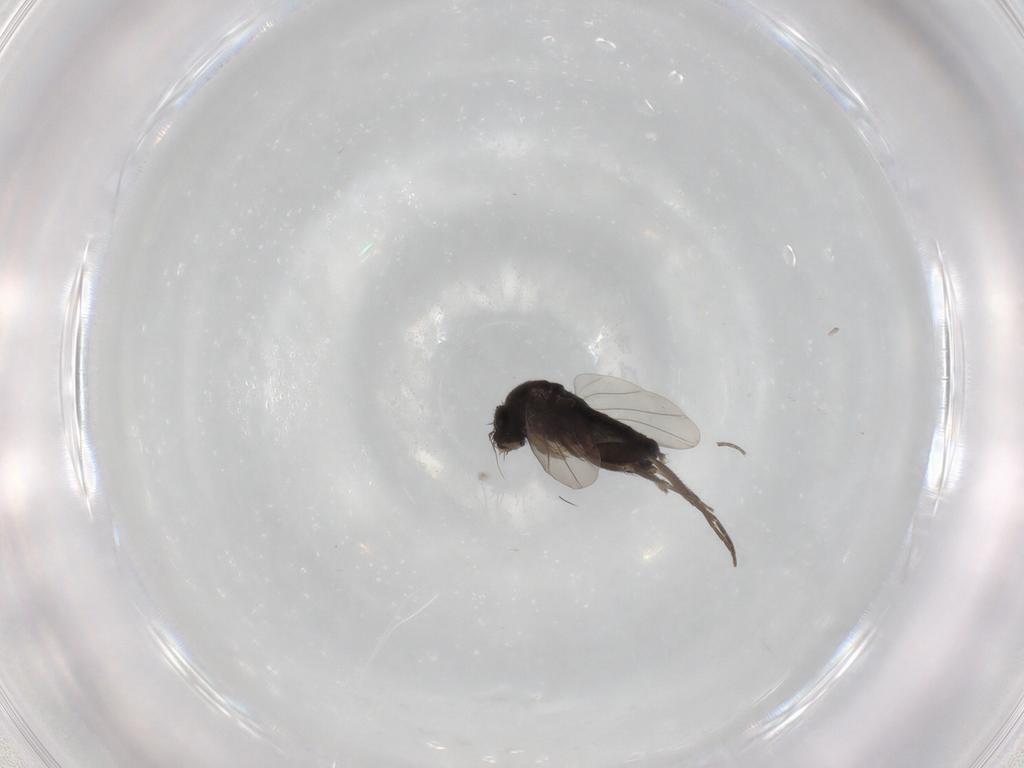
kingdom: Animalia
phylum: Arthropoda
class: Insecta
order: Diptera
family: Phoridae
